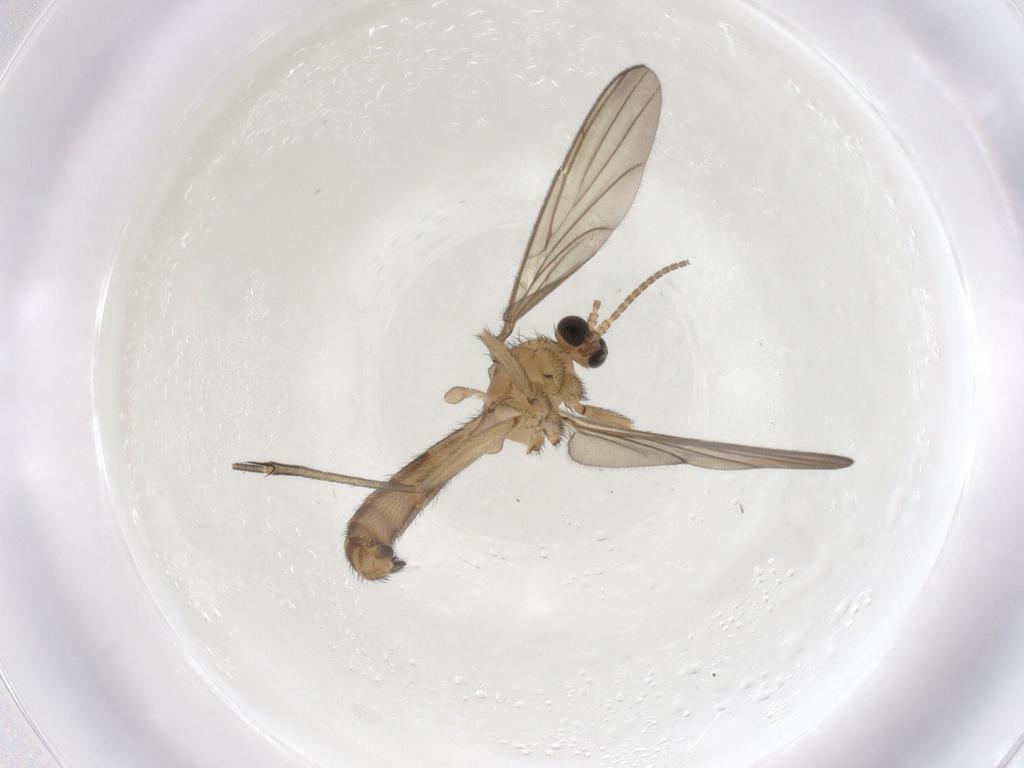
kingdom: Animalia
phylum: Arthropoda
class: Insecta
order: Diptera
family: Keroplatidae
